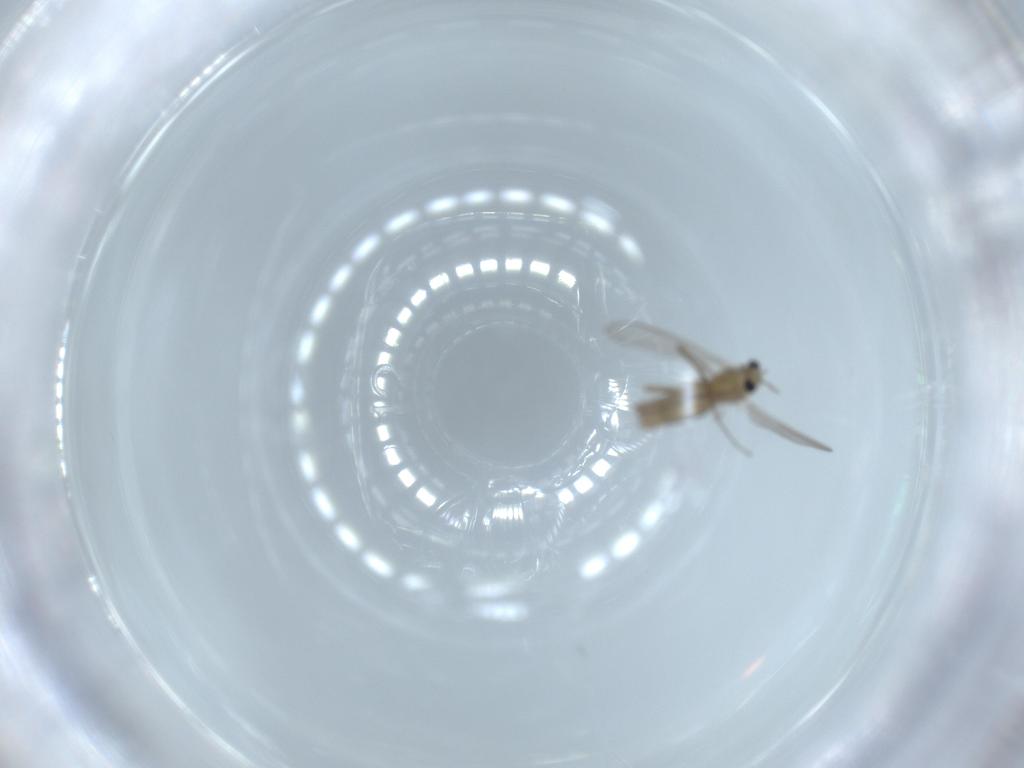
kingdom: Animalia
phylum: Arthropoda
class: Insecta
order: Diptera
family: Chironomidae
